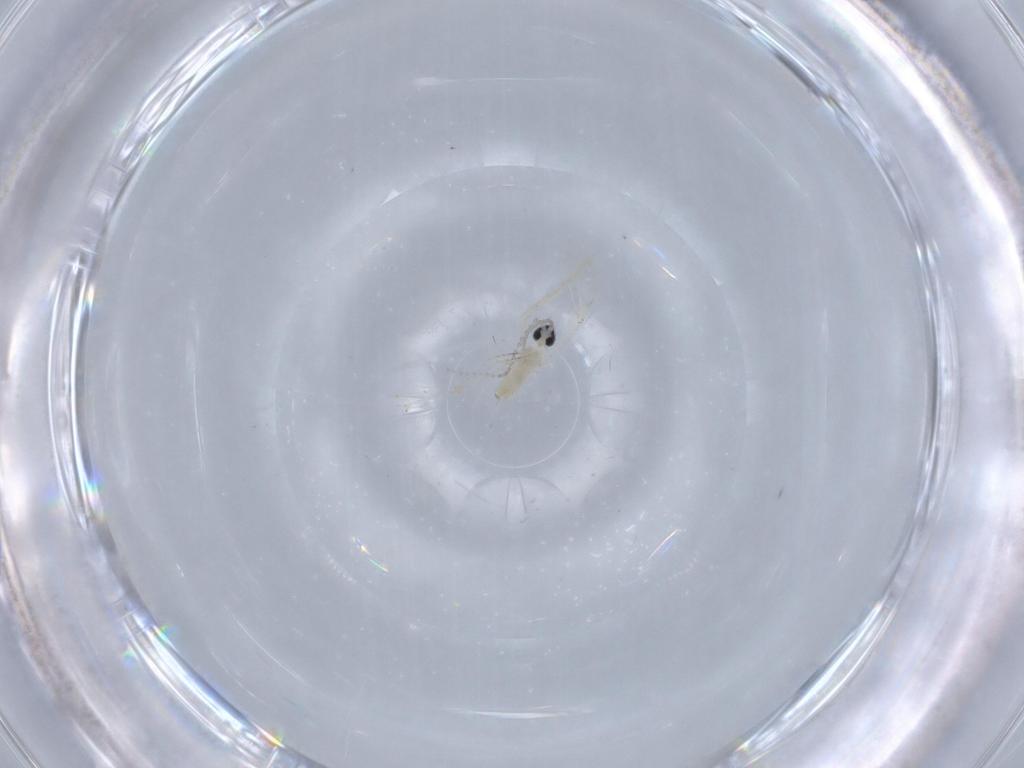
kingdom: Animalia
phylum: Arthropoda
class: Insecta
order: Diptera
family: Cecidomyiidae
